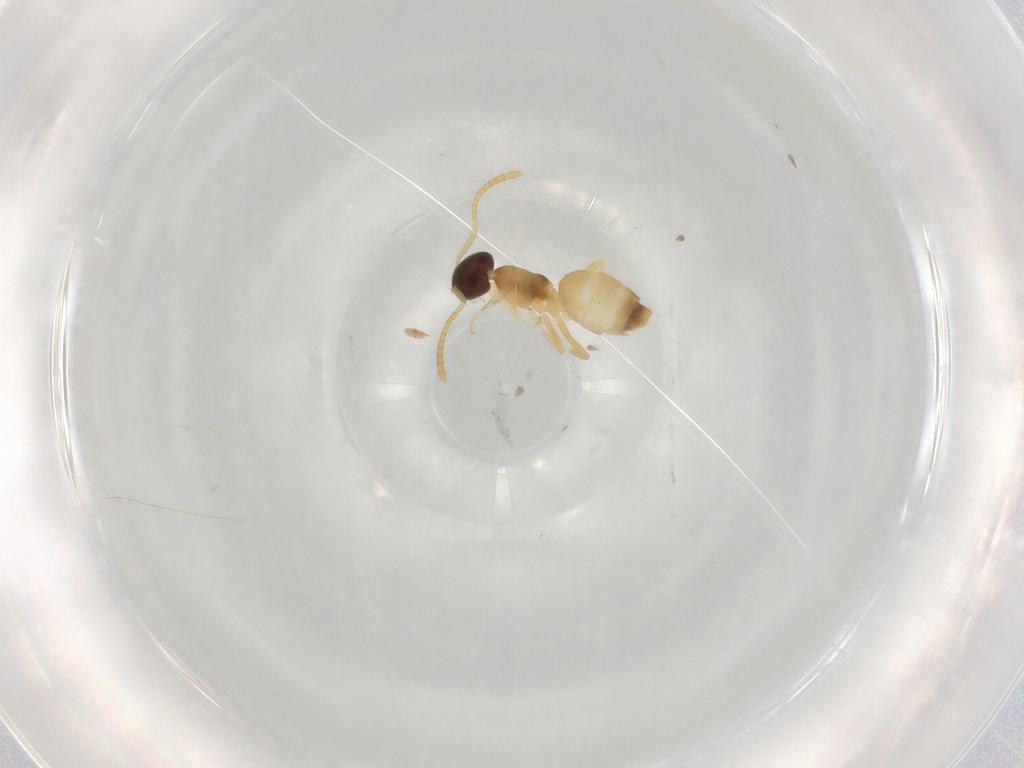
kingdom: Animalia
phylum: Arthropoda
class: Insecta
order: Hymenoptera
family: Formicidae
